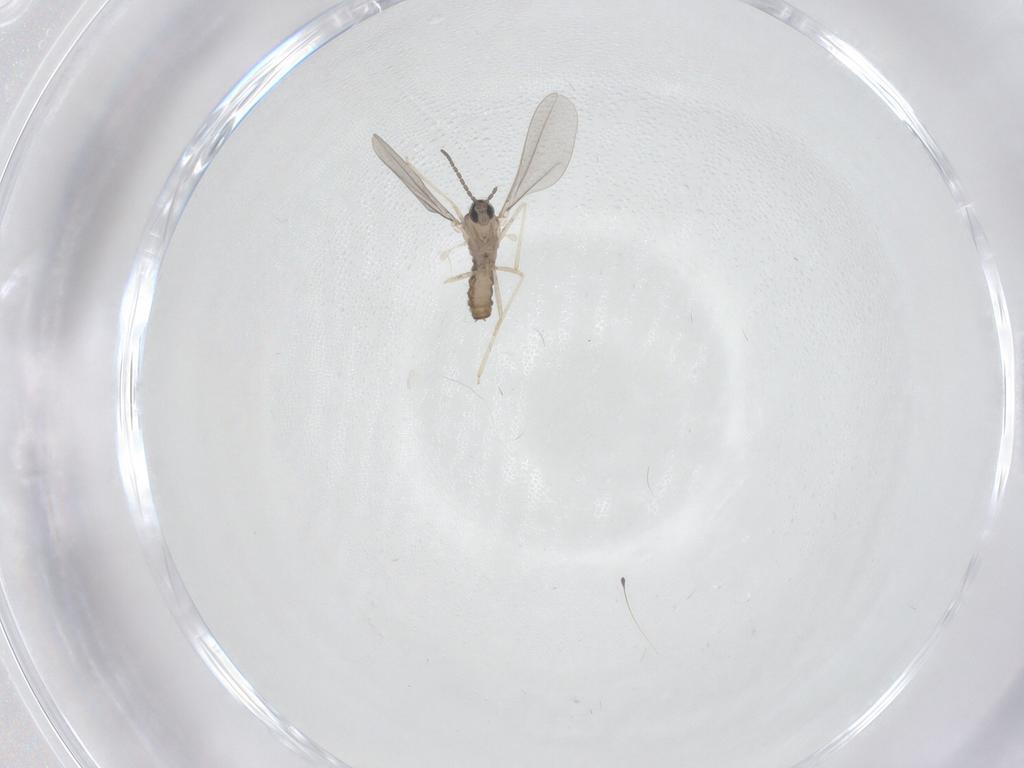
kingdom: Animalia
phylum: Arthropoda
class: Insecta
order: Diptera
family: Cecidomyiidae
